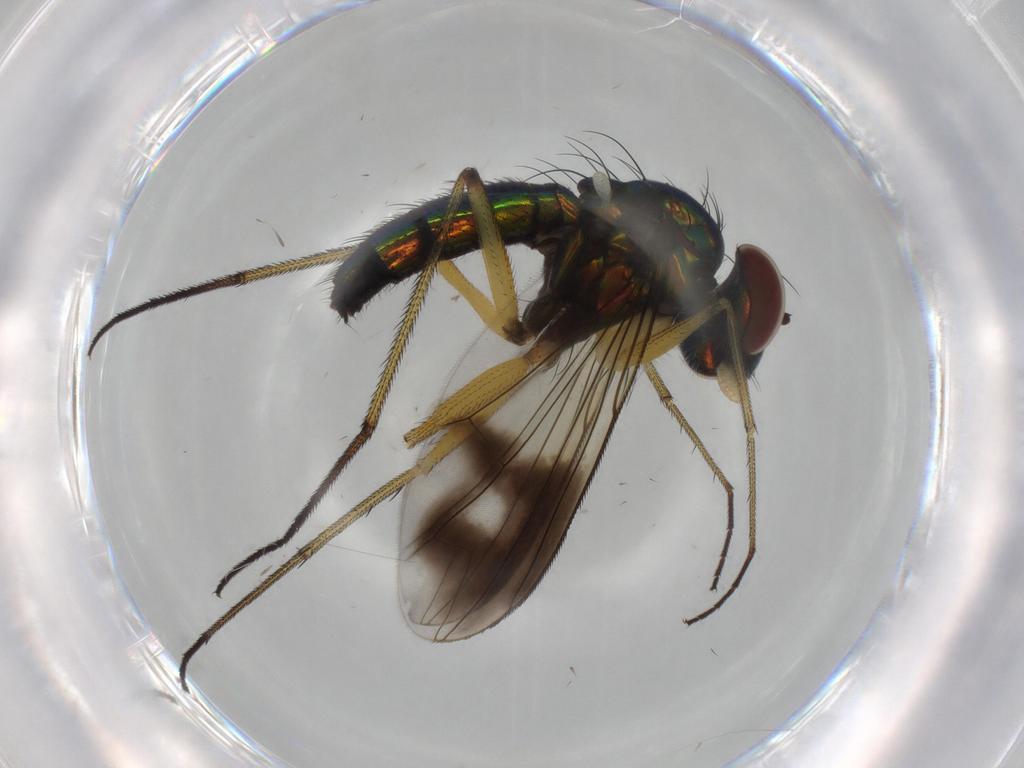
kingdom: Animalia
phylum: Arthropoda
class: Insecta
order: Diptera
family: Dolichopodidae
